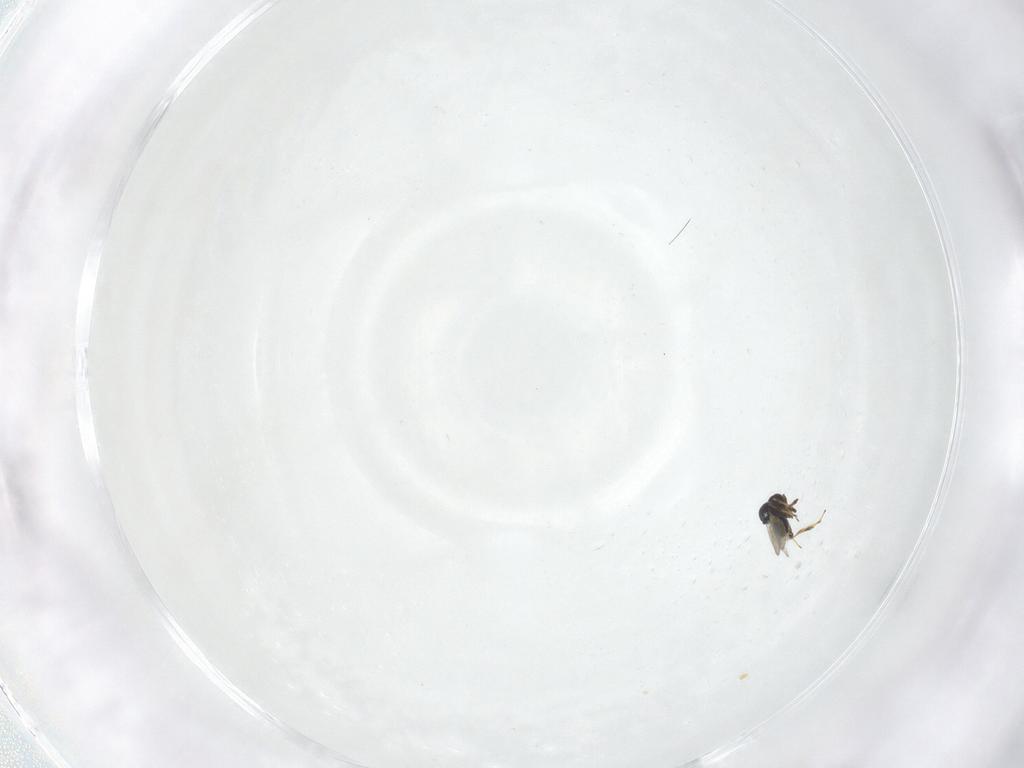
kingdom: Animalia
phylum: Arthropoda
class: Insecta
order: Hymenoptera
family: Platygastridae
